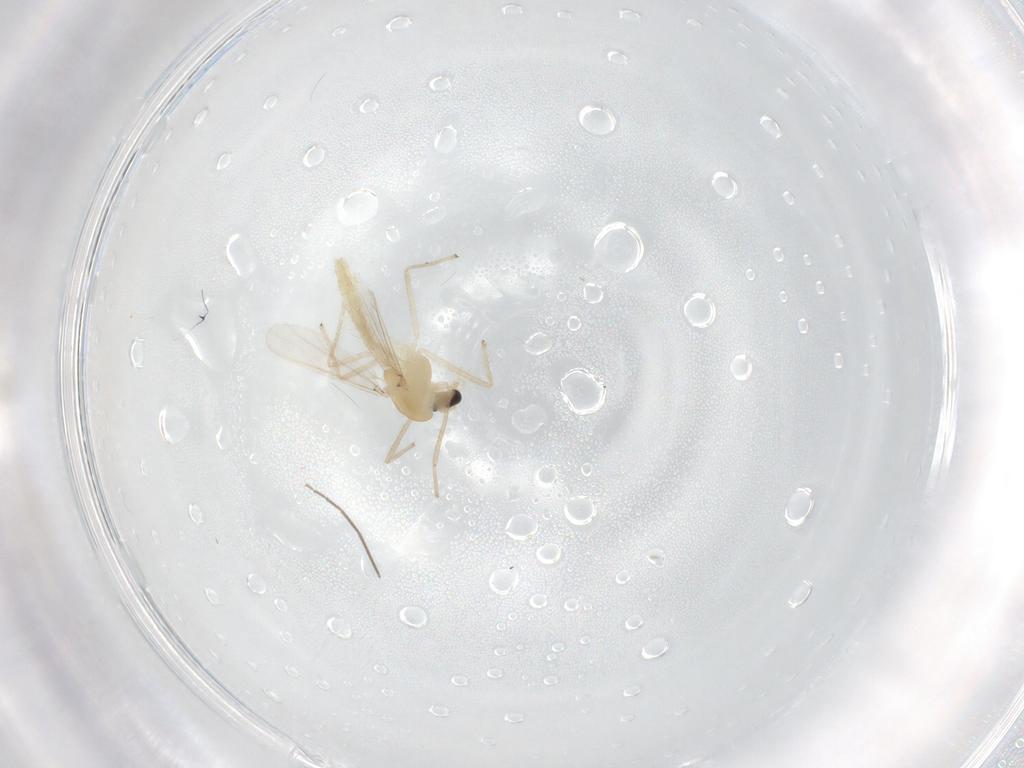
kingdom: Animalia
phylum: Arthropoda
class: Insecta
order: Diptera
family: Chironomidae
